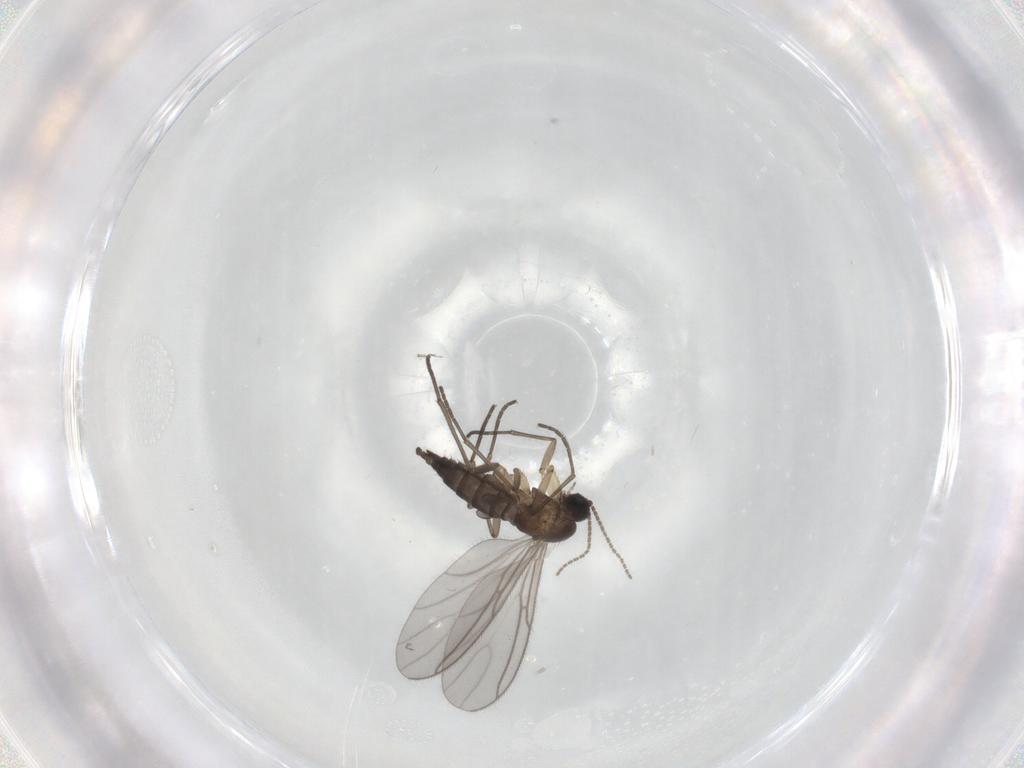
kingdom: Animalia
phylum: Arthropoda
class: Insecta
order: Diptera
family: Sciaridae
